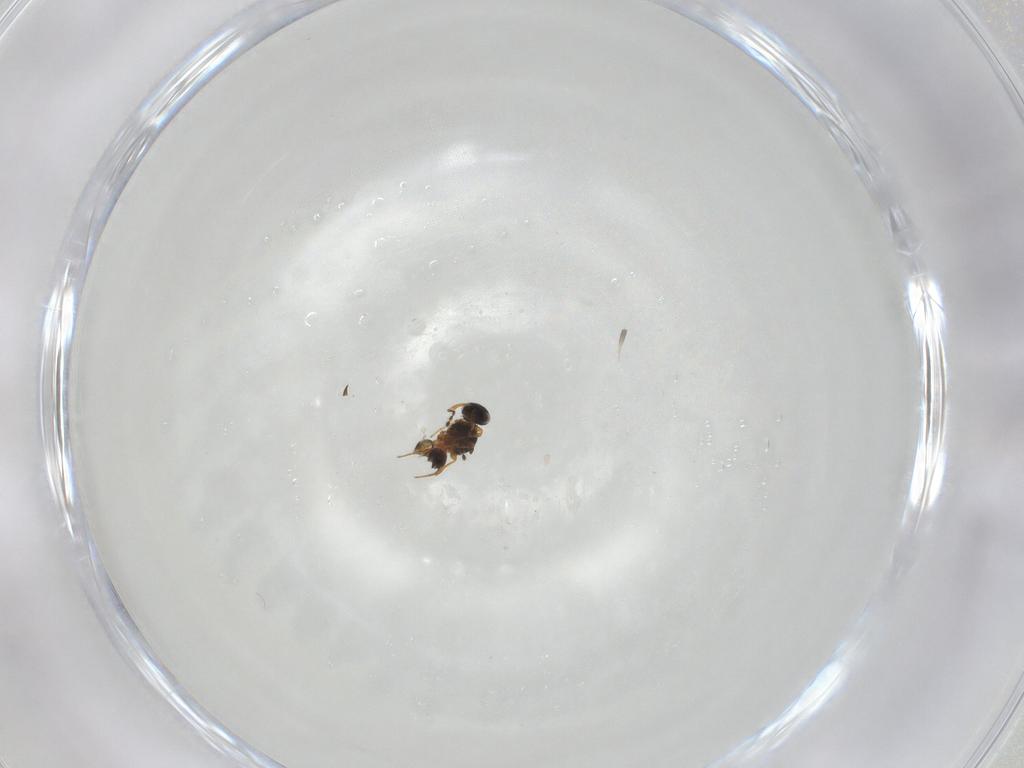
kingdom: Animalia
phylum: Arthropoda
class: Insecta
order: Hymenoptera
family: Platygastridae
